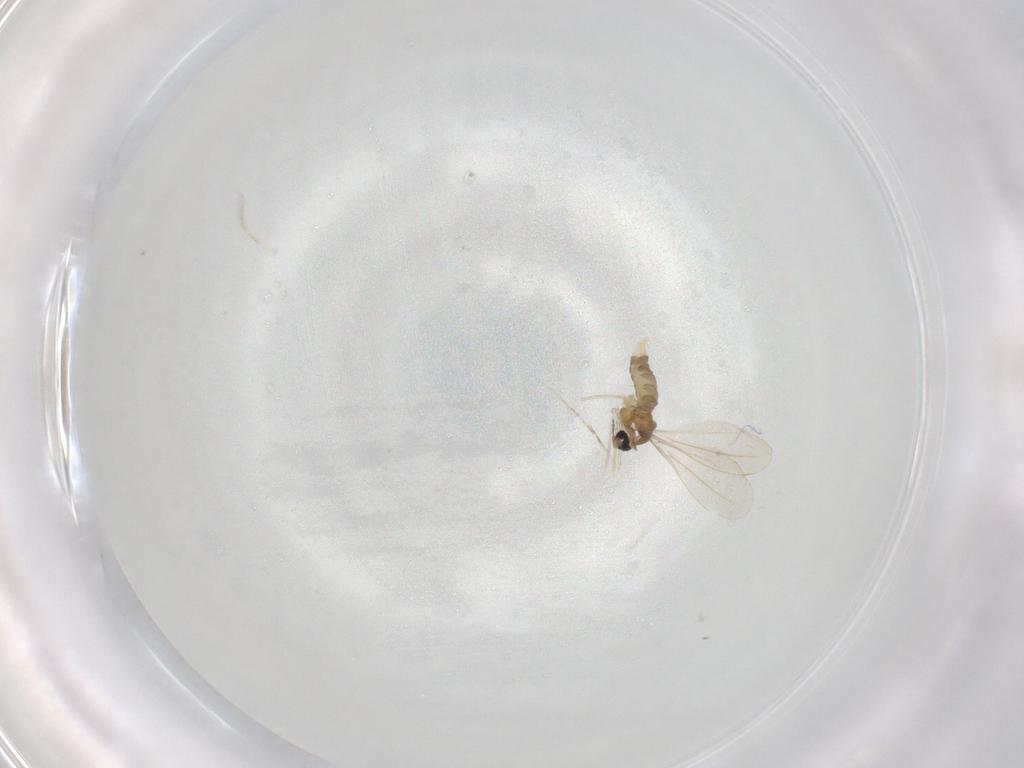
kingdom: Animalia
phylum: Arthropoda
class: Insecta
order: Diptera
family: Cecidomyiidae
